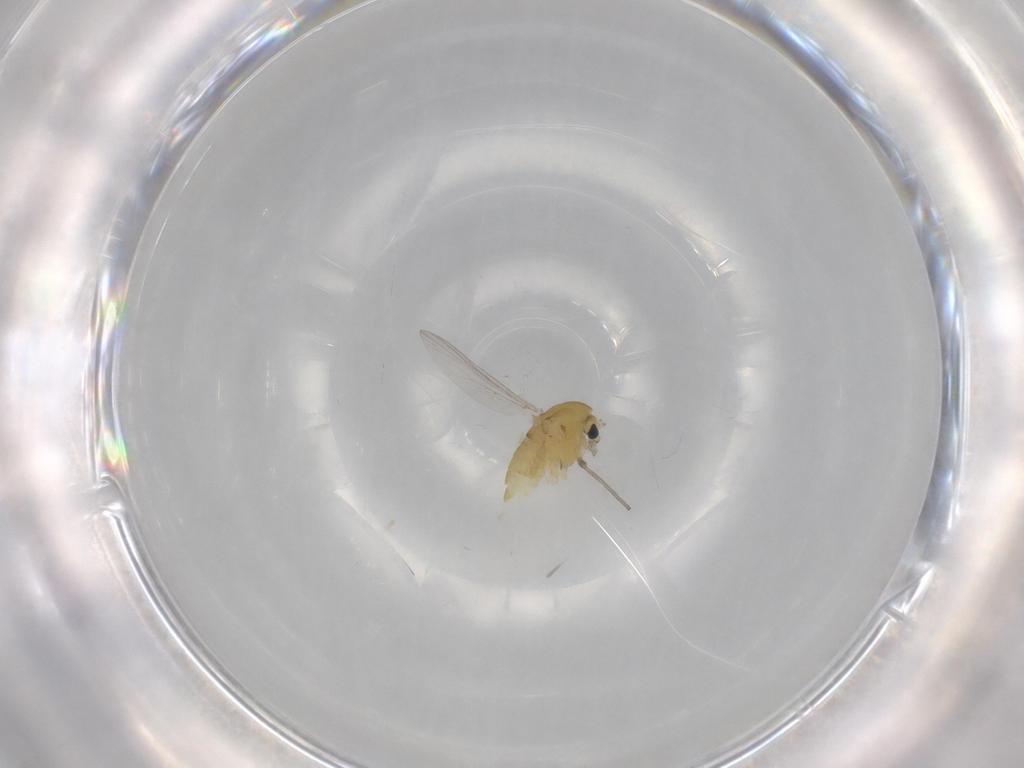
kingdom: Animalia
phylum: Arthropoda
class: Insecta
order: Diptera
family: Chironomidae
